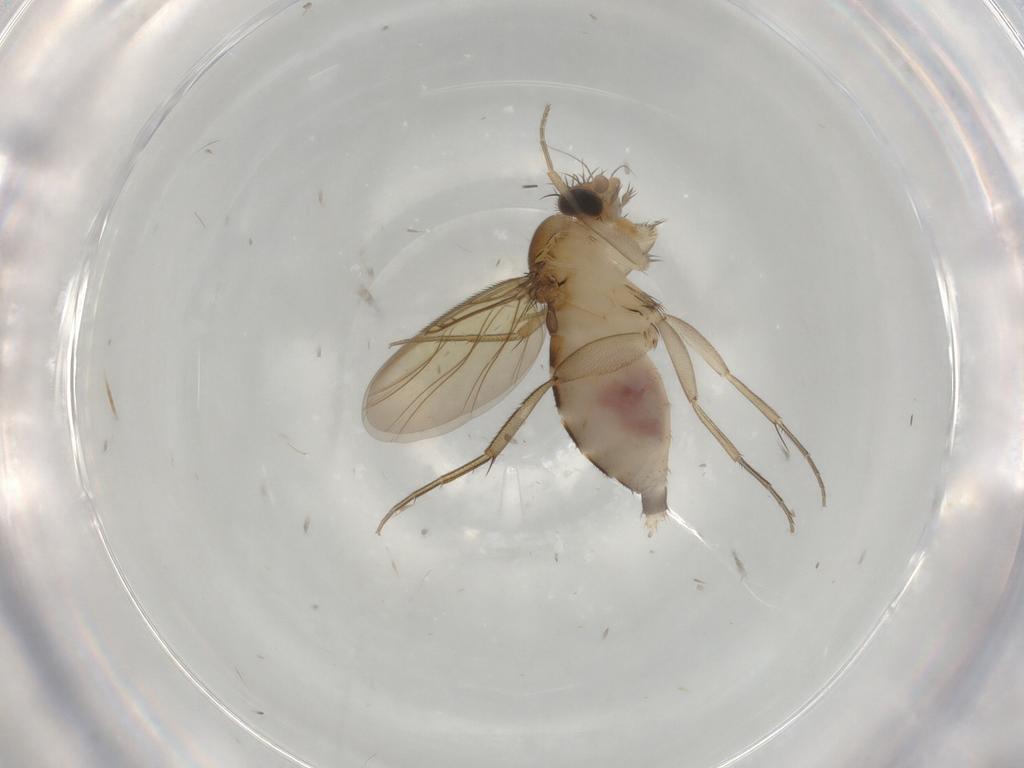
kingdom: Animalia
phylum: Arthropoda
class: Insecta
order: Diptera
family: Phoridae
